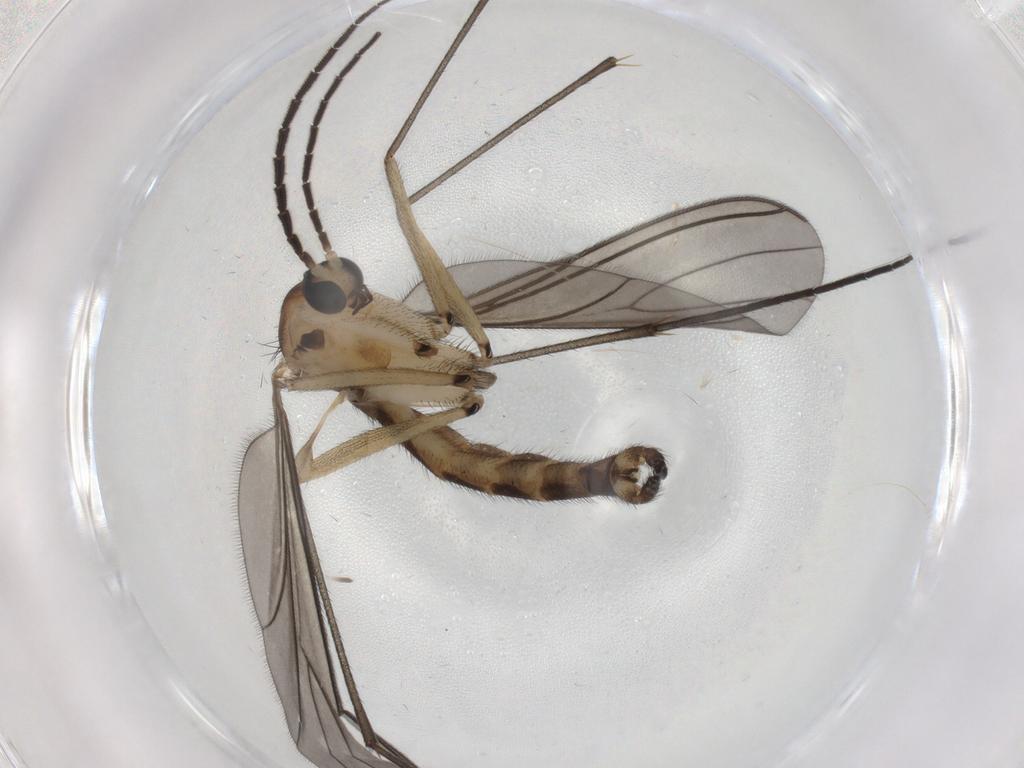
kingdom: Animalia
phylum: Arthropoda
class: Insecta
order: Diptera
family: Sciaridae
